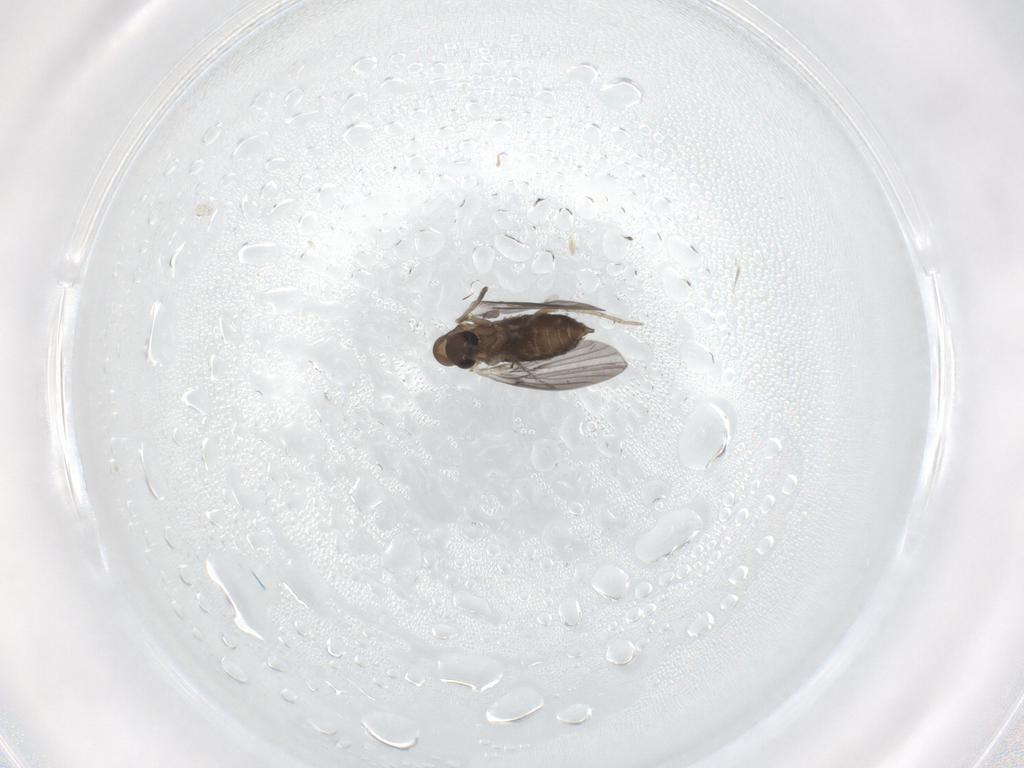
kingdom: Animalia
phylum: Arthropoda
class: Insecta
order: Diptera
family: Sciaridae
